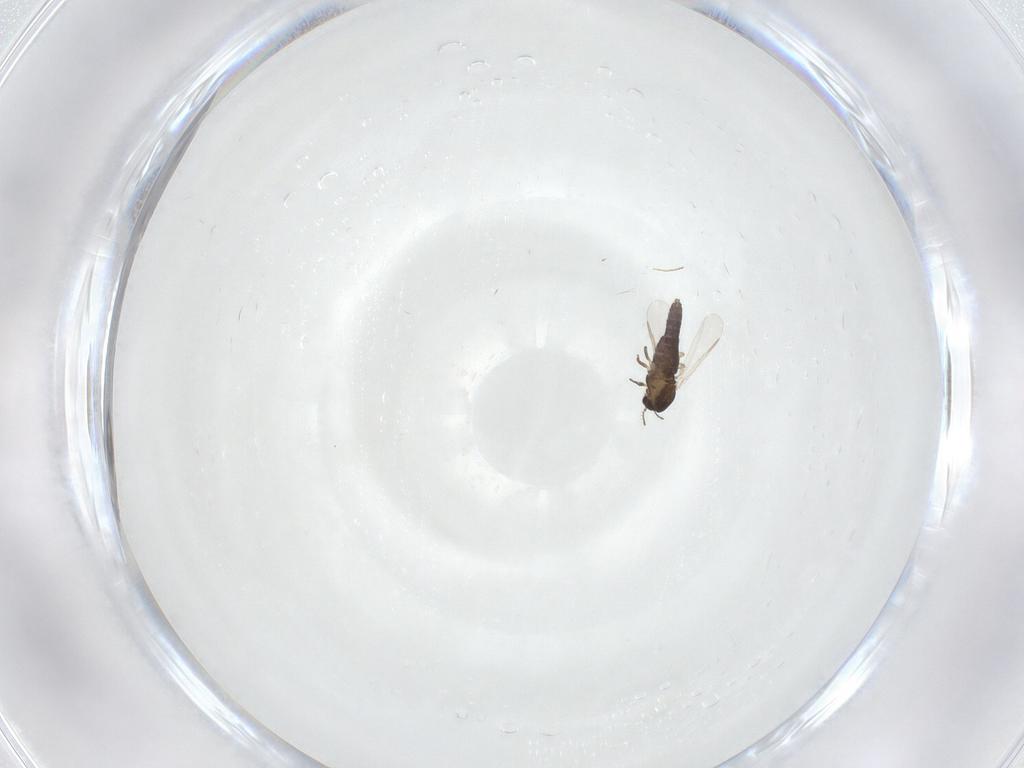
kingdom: Animalia
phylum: Arthropoda
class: Insecta
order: Diptera
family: Chironomidae
